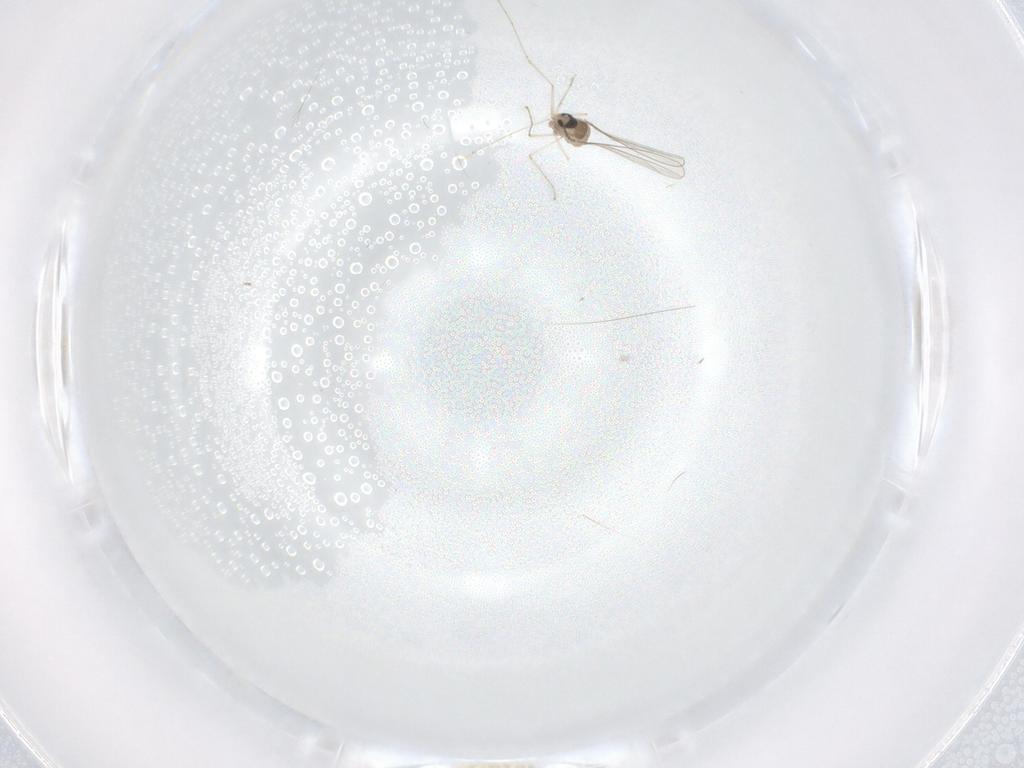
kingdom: Animalia
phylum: Arthropoda
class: Insecta
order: Diptera
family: Cecidomyiidae
